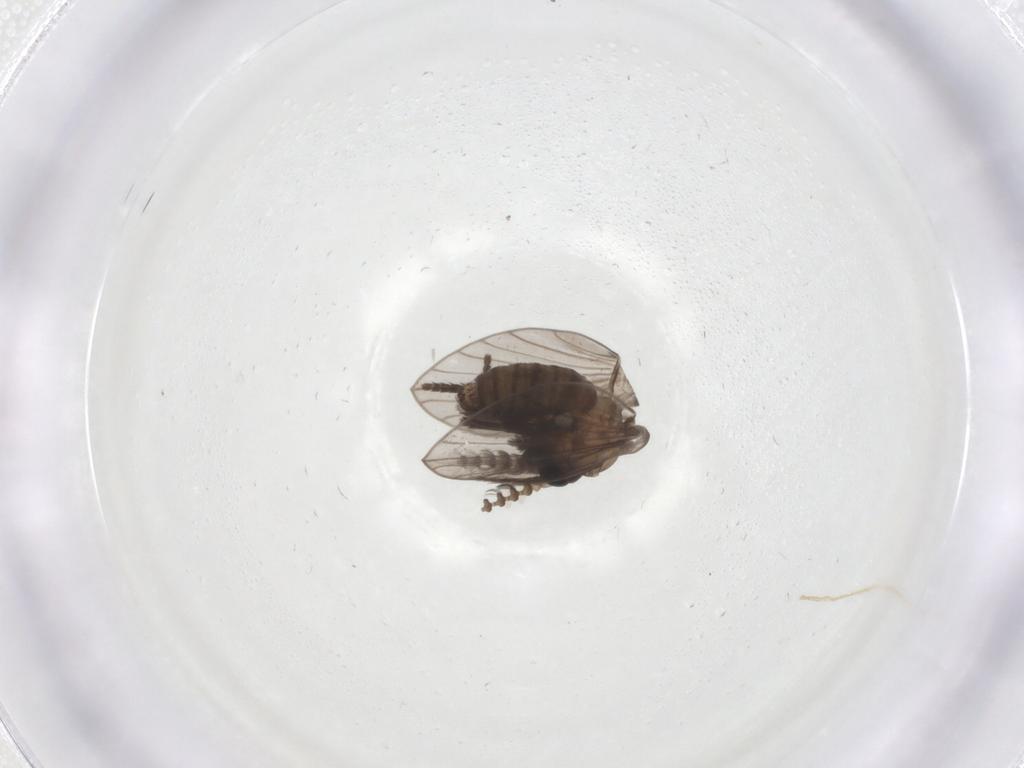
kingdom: Animalia
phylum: Arthropoda
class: Insecta
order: Diptera
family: Psychodidae
